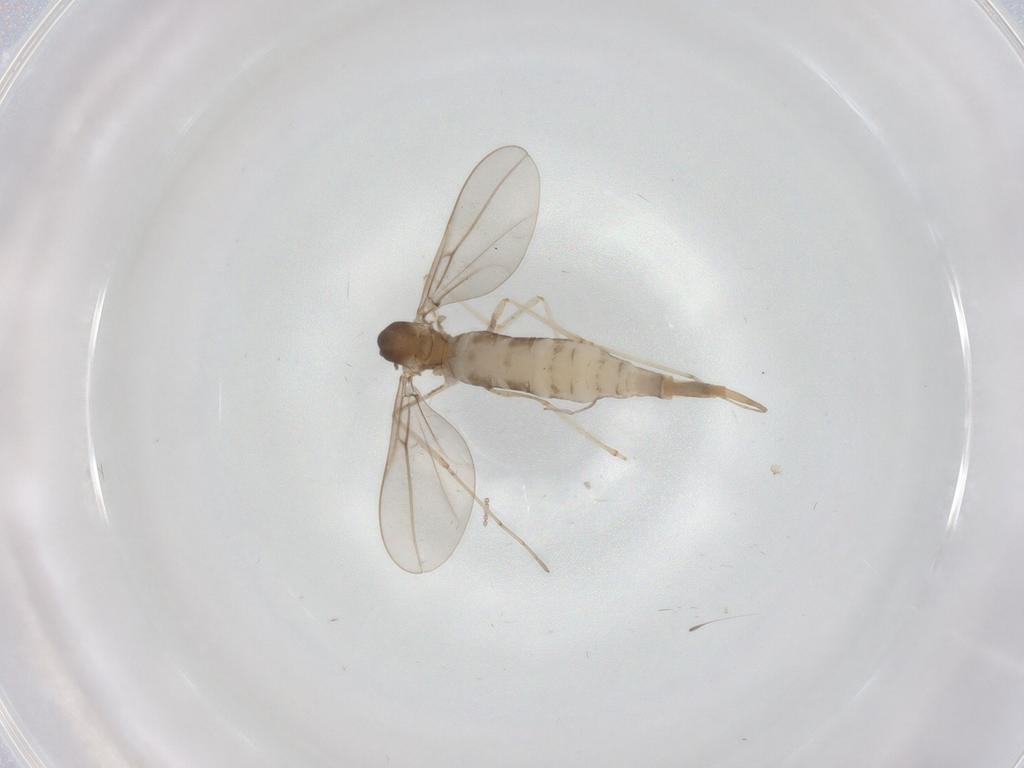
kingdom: Animalia
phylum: Arthropoda
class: Insecta
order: Diptera
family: Cecidomyiidae
